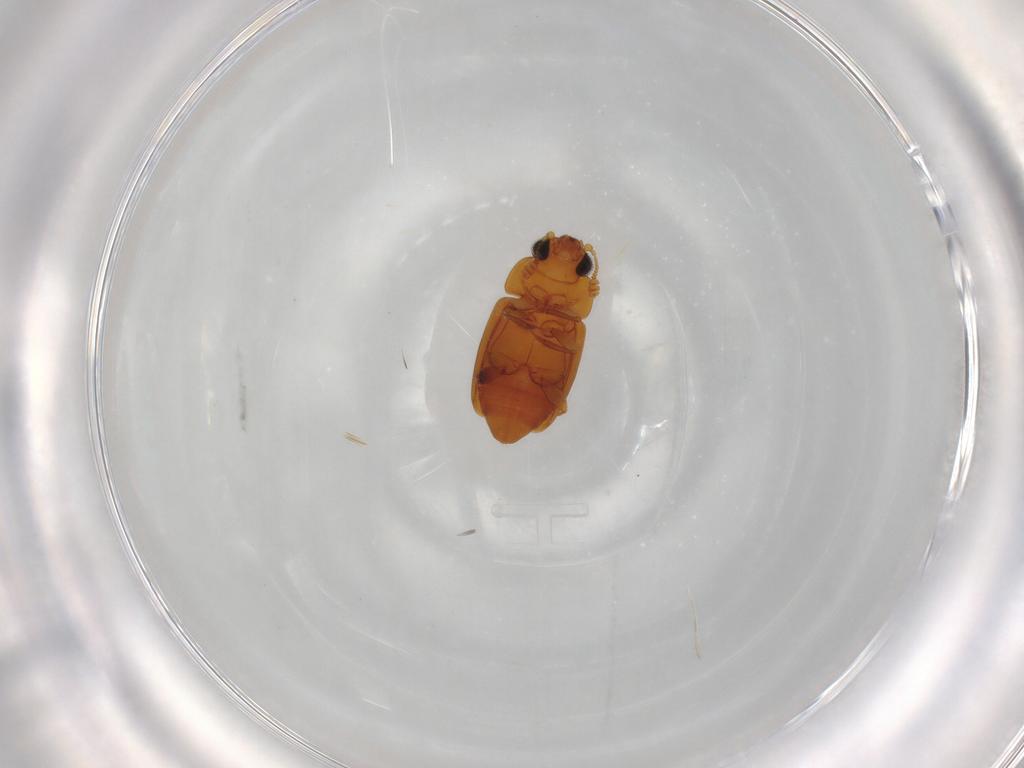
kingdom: Animalia
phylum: Arthropoda
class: Insecta
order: Coleoptera
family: Nitidulidae
